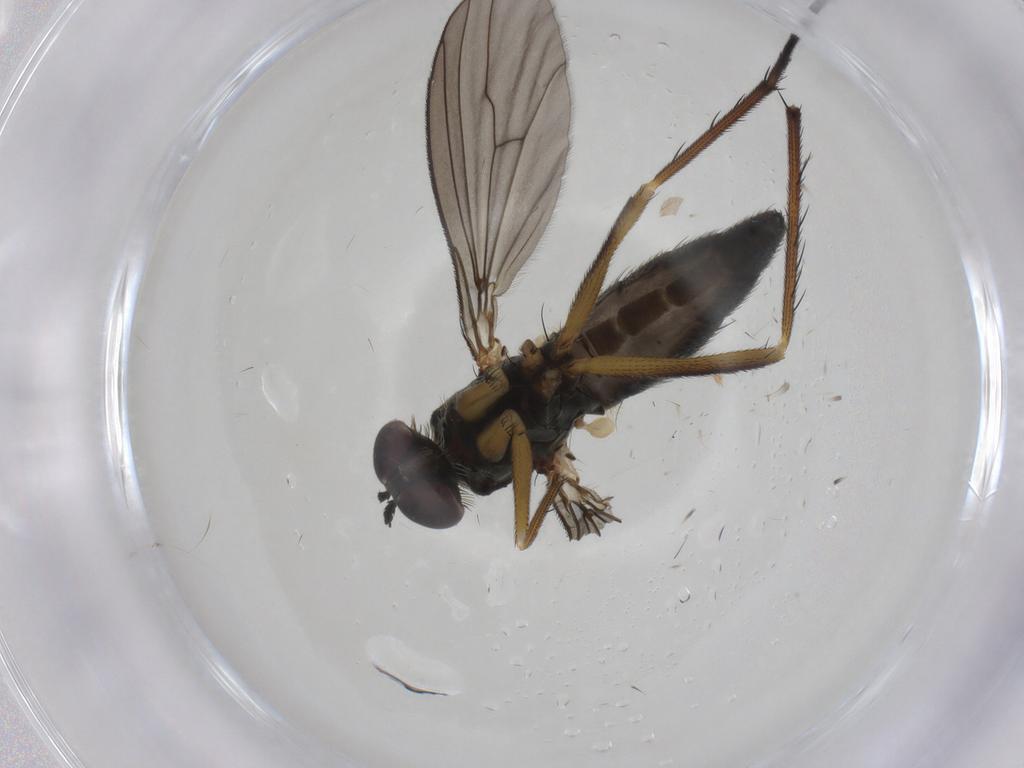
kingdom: Animalia
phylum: Arthropoda
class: Insecta
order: Diptera
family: Dolichopodidae
